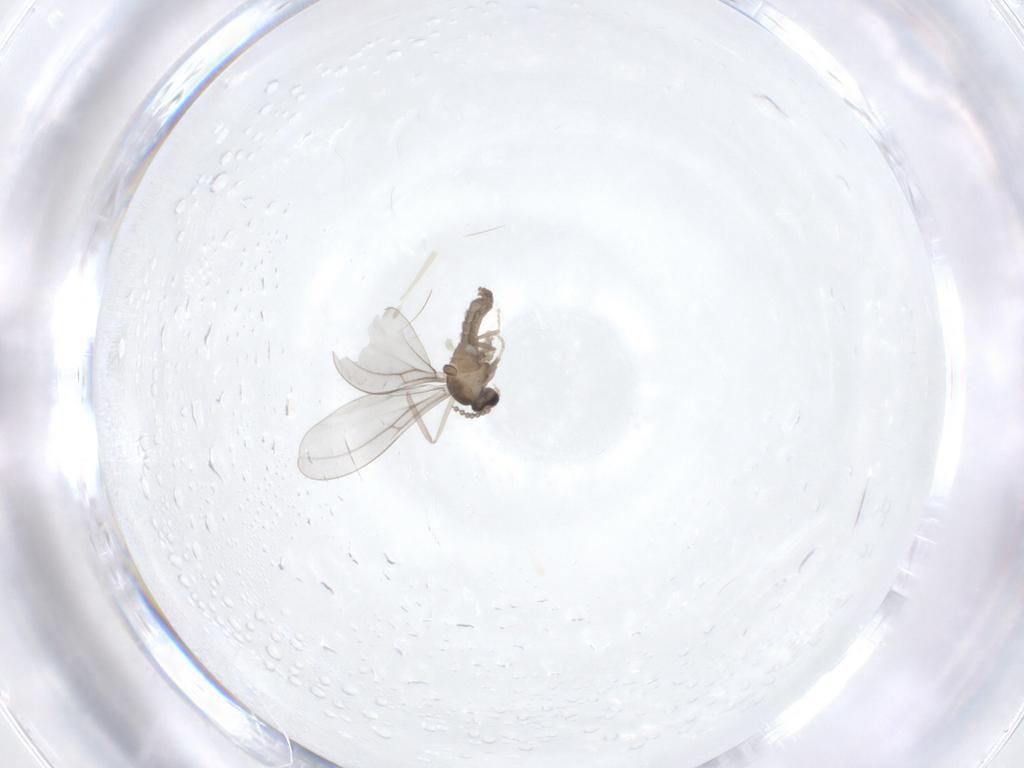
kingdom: Animalia
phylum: Arthropoda
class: Insecta
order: Diptera
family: Cecidomyiidae
